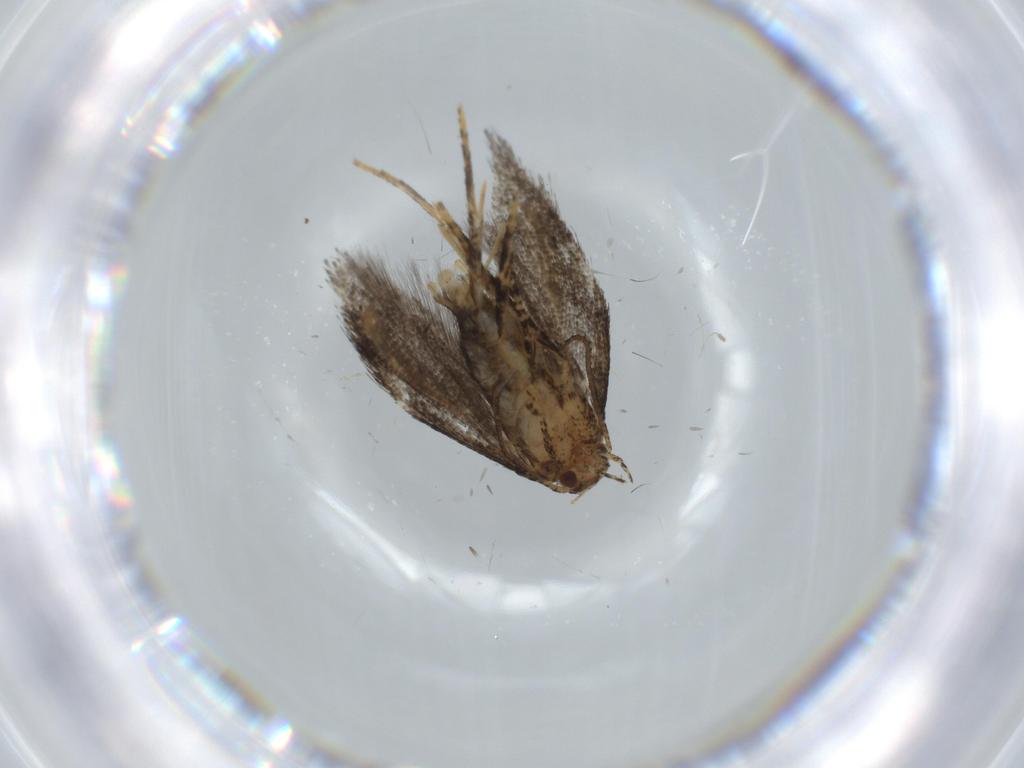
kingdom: Animalia
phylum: Arthropoda
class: Insecta
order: Lepidoptera
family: Gelechiidae
